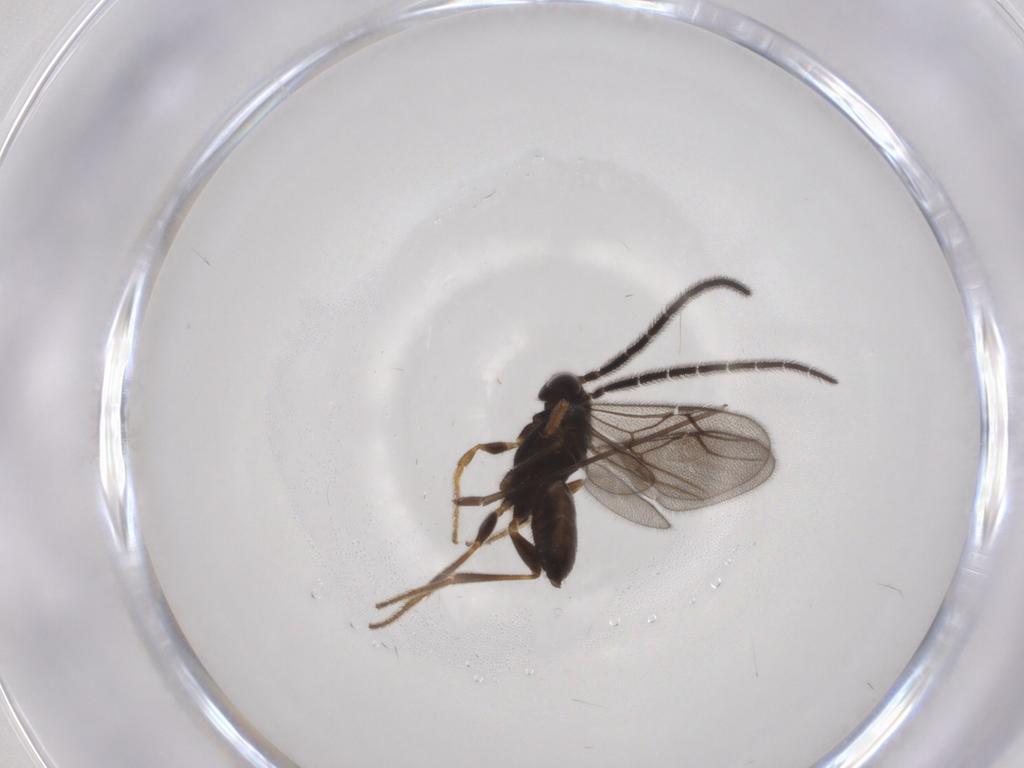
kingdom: Animalia
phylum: Arthropoda
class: Insecta
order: Hymenoptera
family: Dryinidae
